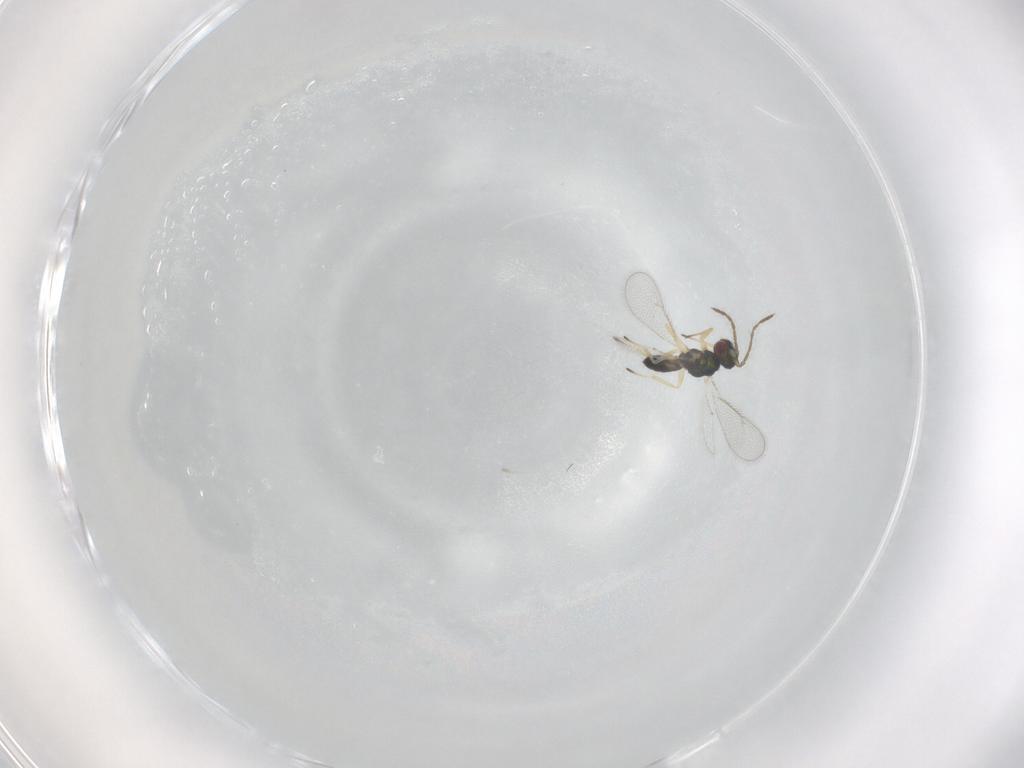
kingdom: Animalia
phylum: Arthropoda
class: Insecta
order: Hymenoptera
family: Eulophidae
